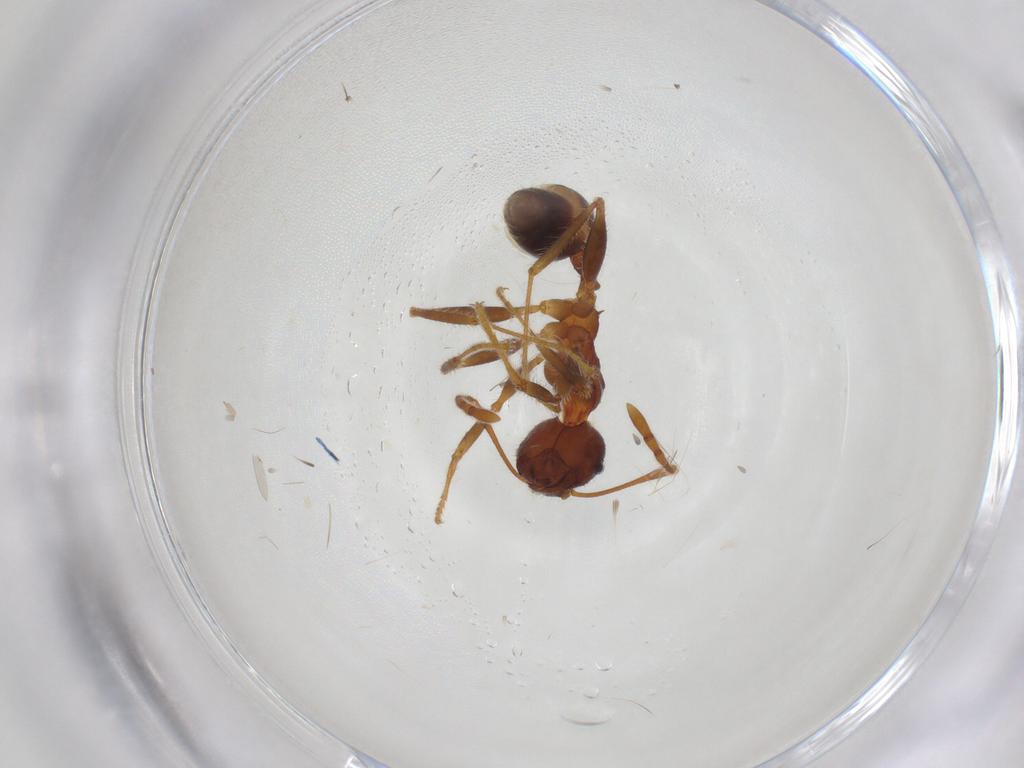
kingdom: Animalia
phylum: Arthropoda
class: Insecta
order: Hymenoptera
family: Formicidae
